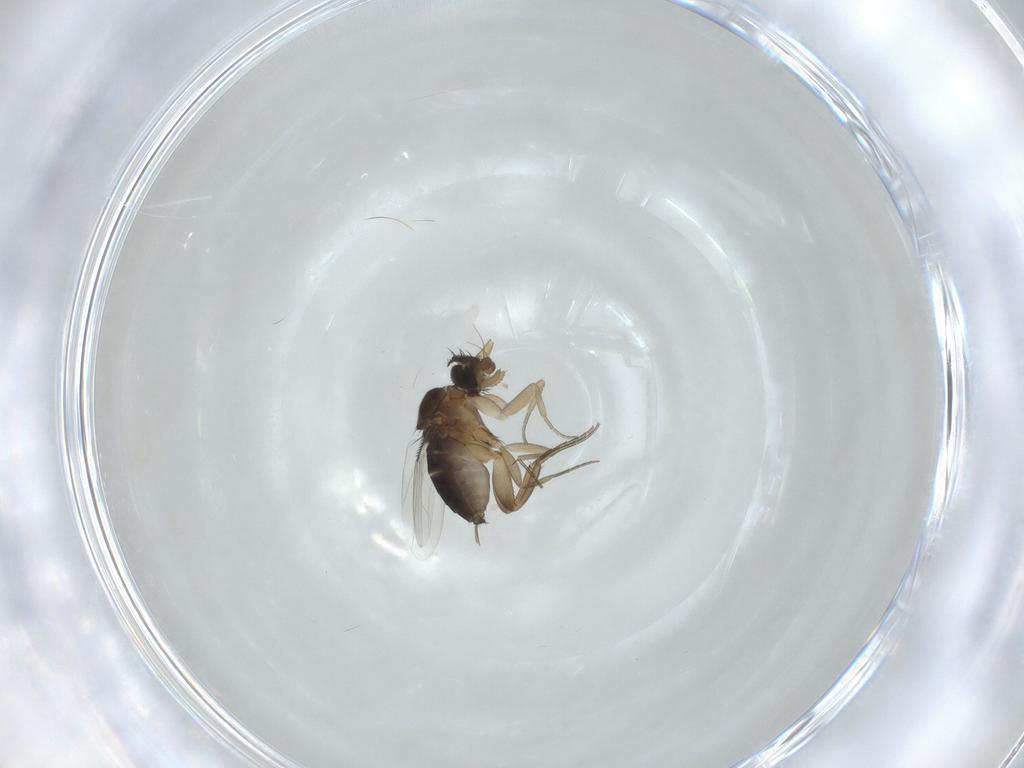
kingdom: Animalia
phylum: Arthropoda
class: Insecta
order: Diptera
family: Phoridae
